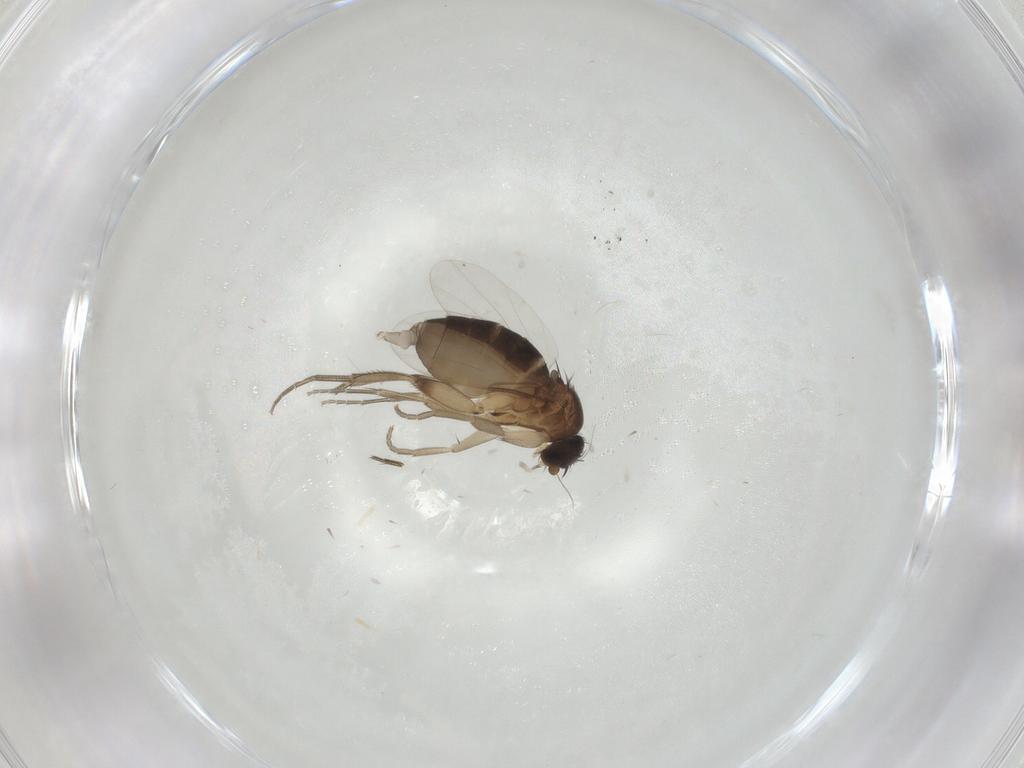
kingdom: Animalia
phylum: Arthropoda
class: Insecta
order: Diptera
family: Phoridae
